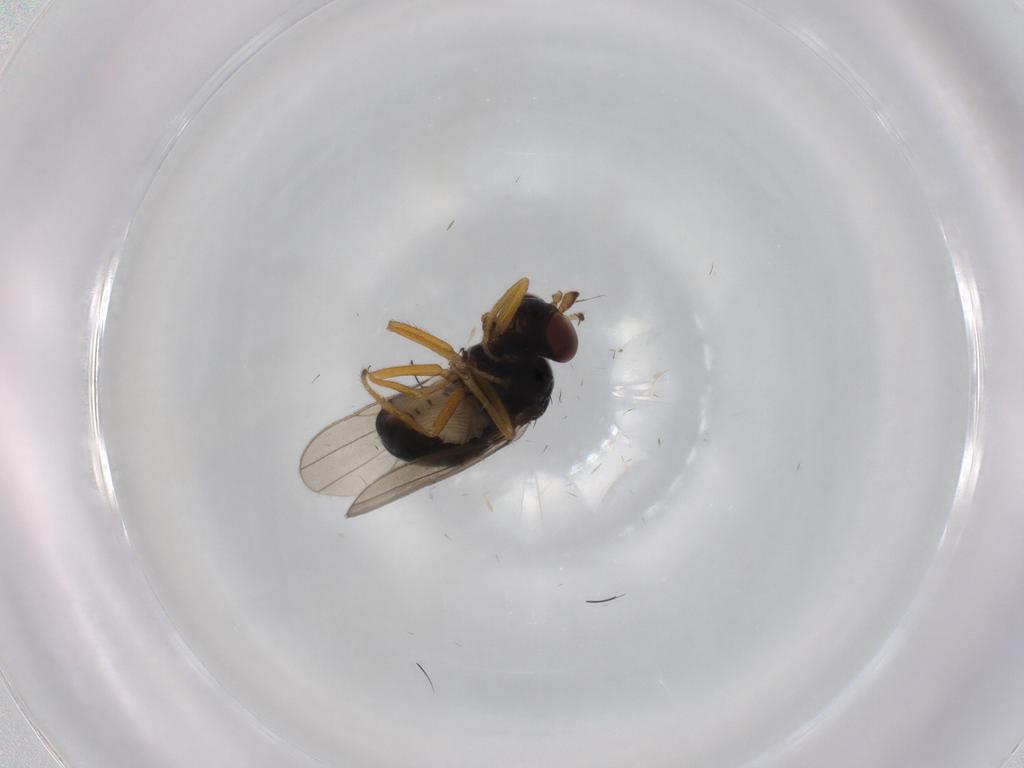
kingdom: Animalia
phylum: Arthropoda
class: Insecta
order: Diptera
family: Ephydridae
